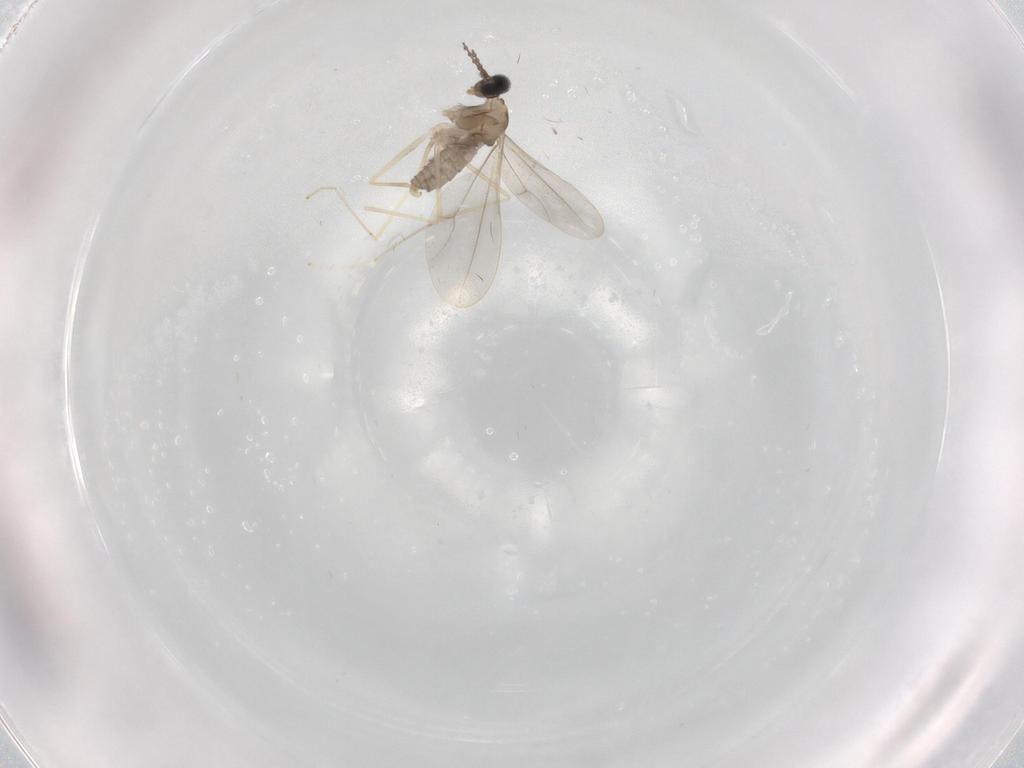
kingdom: Animalia
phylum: Arthropoda
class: Insecta
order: Diptera
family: Cecidomyiidae
